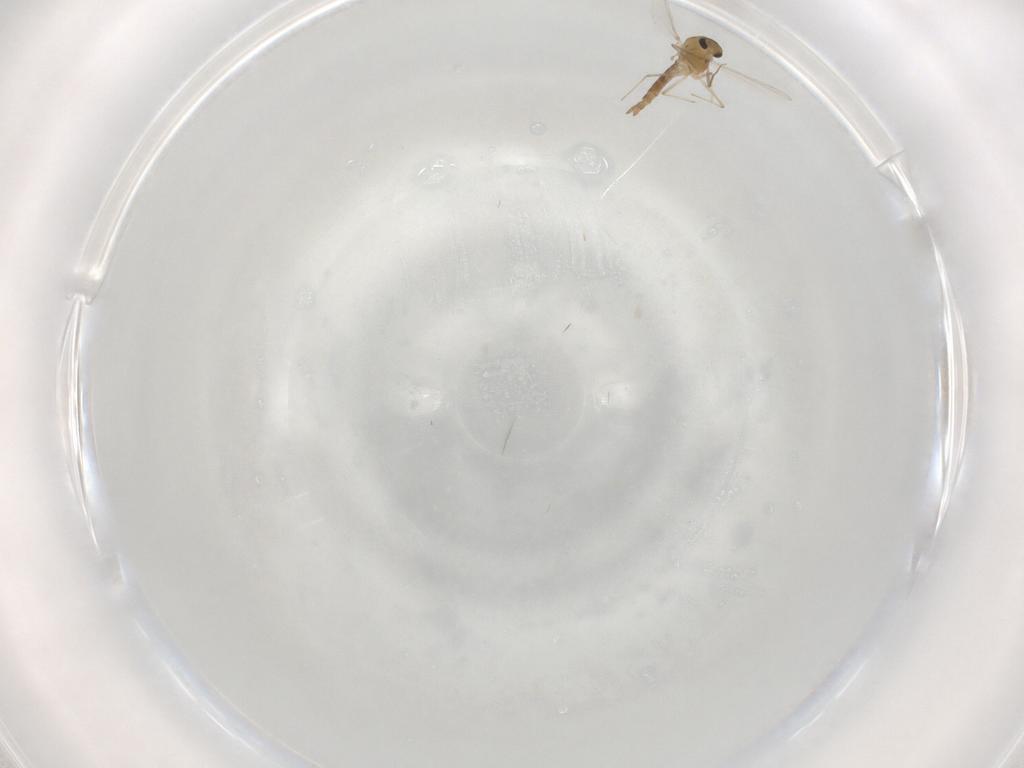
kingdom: Animalia
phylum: Arthropoda
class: Insecta
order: Diptera
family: Chironomidae
